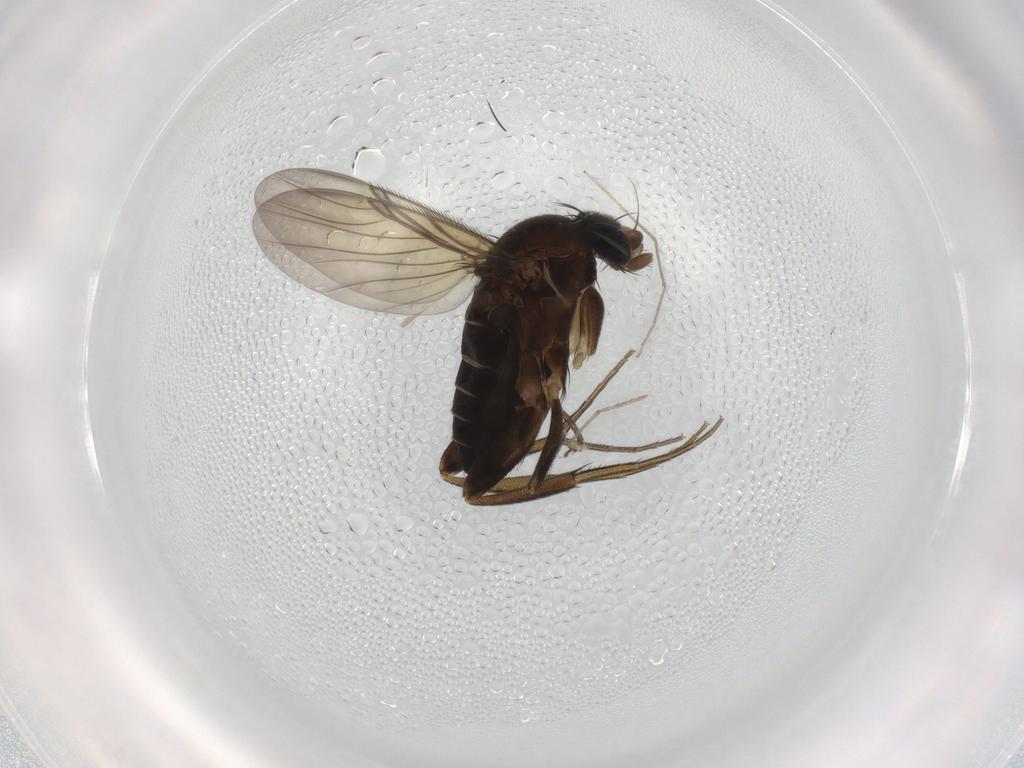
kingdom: Animalia
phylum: Arthropoda
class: Insecta
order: Diptera
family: Phoridae
